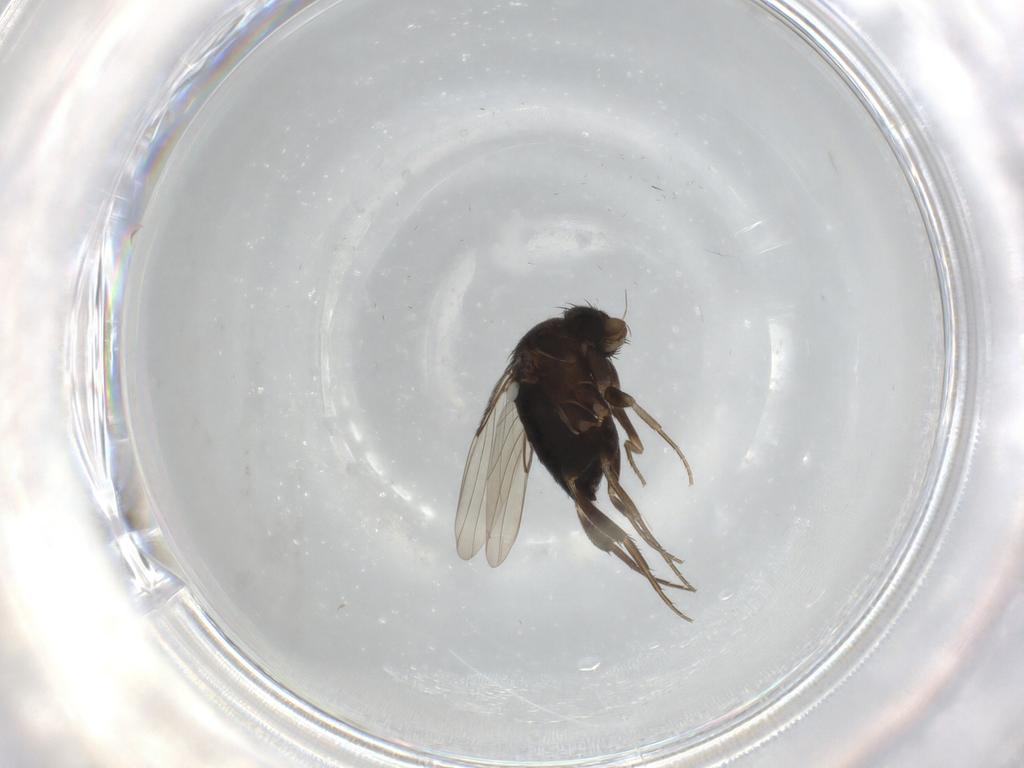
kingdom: Animalia
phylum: Arthropoda
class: Insecta
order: Diptera
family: Phoridae
